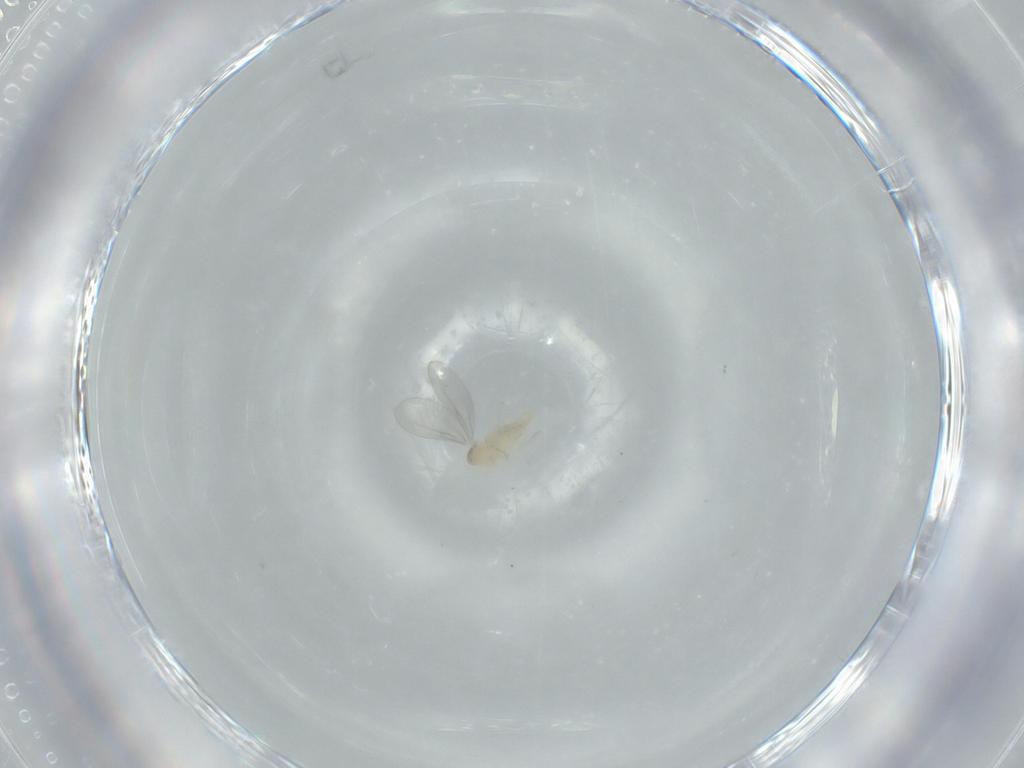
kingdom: Animalia
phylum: Arthropoda
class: Insecta
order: Diptera
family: Cecidomyiidae
